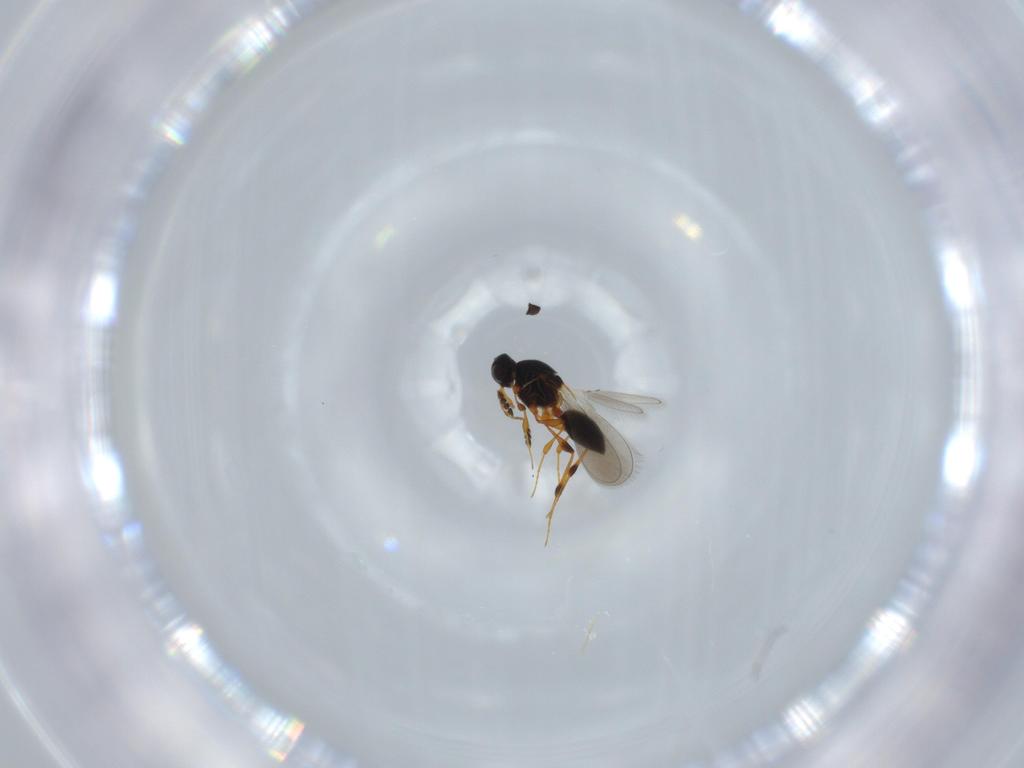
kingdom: Animalia
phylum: Arthropoda
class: Insecta
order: Hymenoptera
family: Platygastridae
